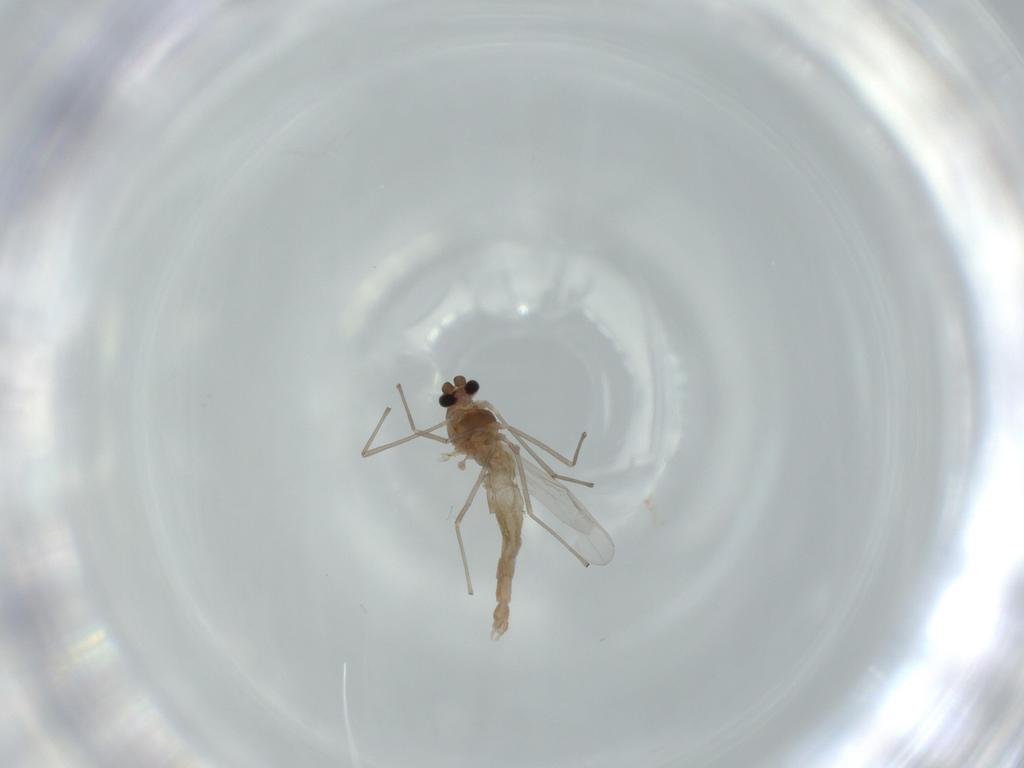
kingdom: Animalia
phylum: Arthropoda
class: Insecta
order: Diptera
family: Chironomidae
